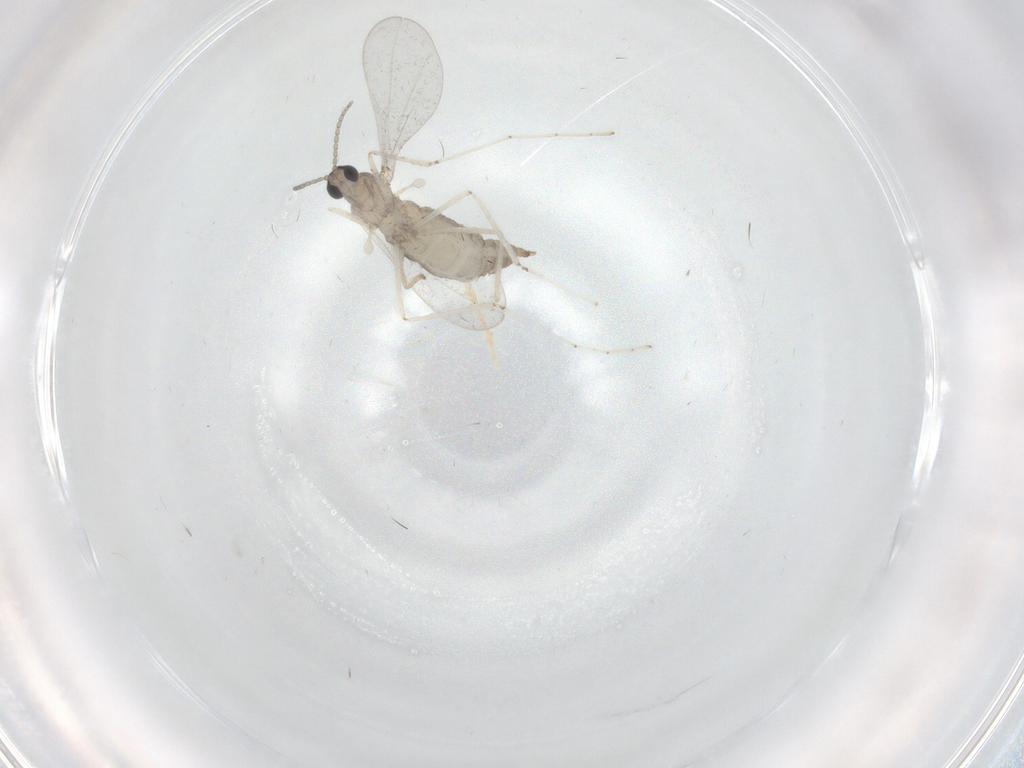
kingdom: Animalia
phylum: Arthropoda
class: Insecta
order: Diptera
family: Cecidomyiidae
